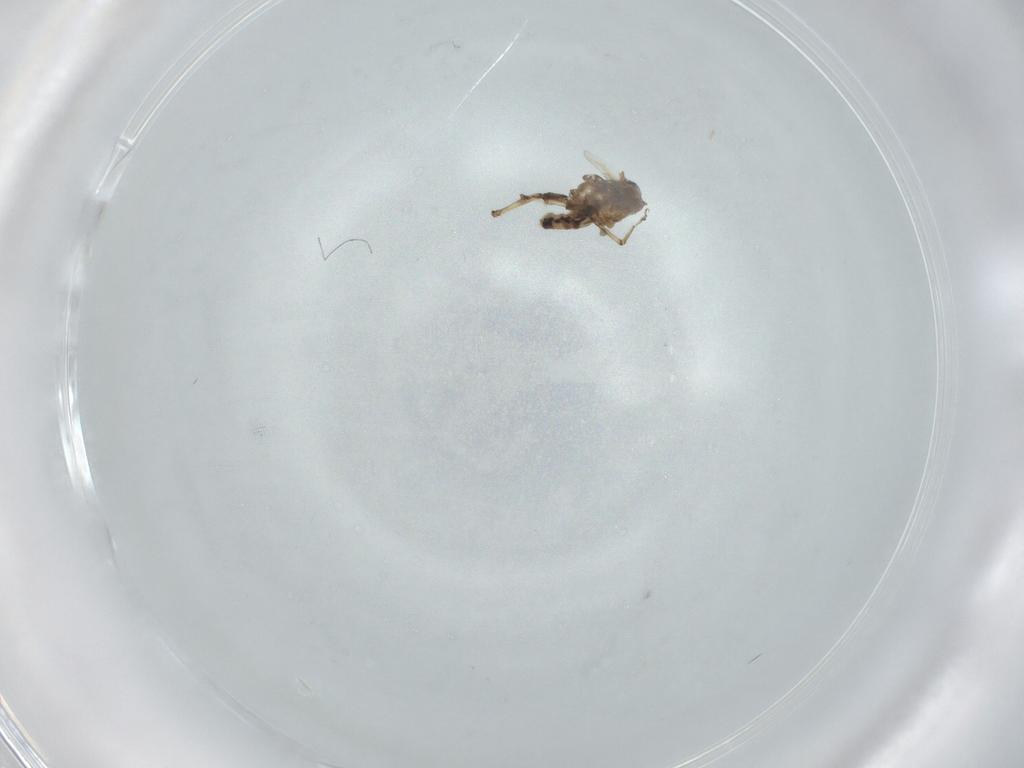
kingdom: Animalia
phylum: Arthropoda
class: Insecta
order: Diptera
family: Ceratopogonidae
